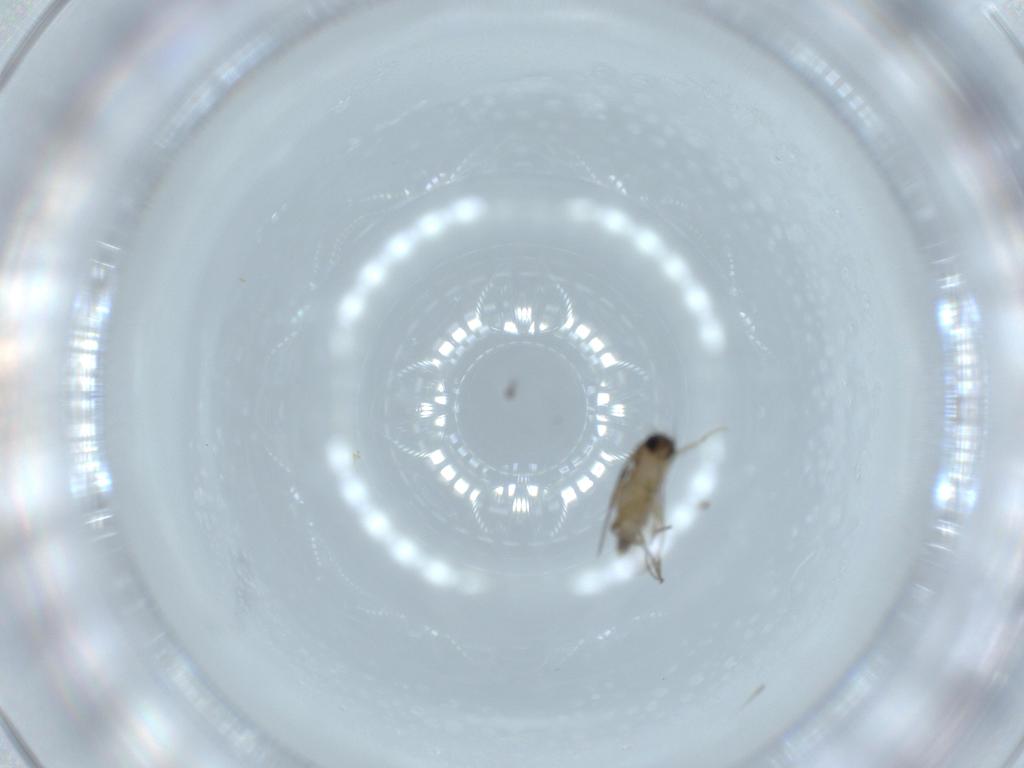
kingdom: Animalia
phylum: Arthropoda
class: Insecta
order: Diptera
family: Phoridae
